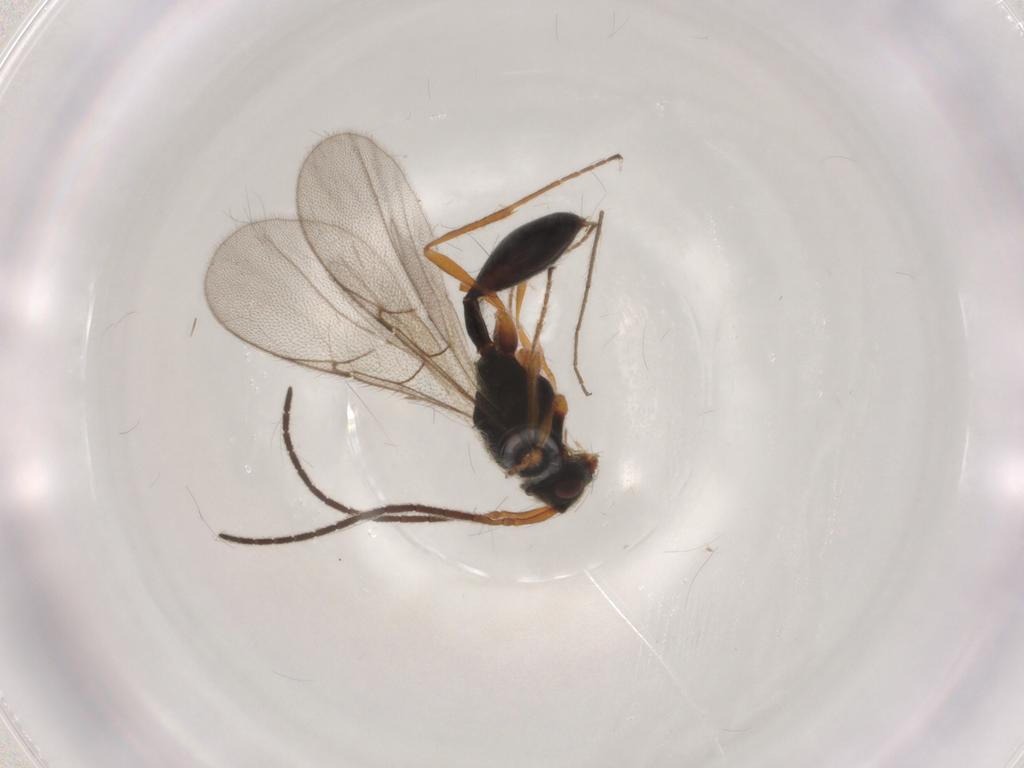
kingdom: Animalia
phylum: Arthropoda
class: Insecta
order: Hymenoptera
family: Diapriidae
